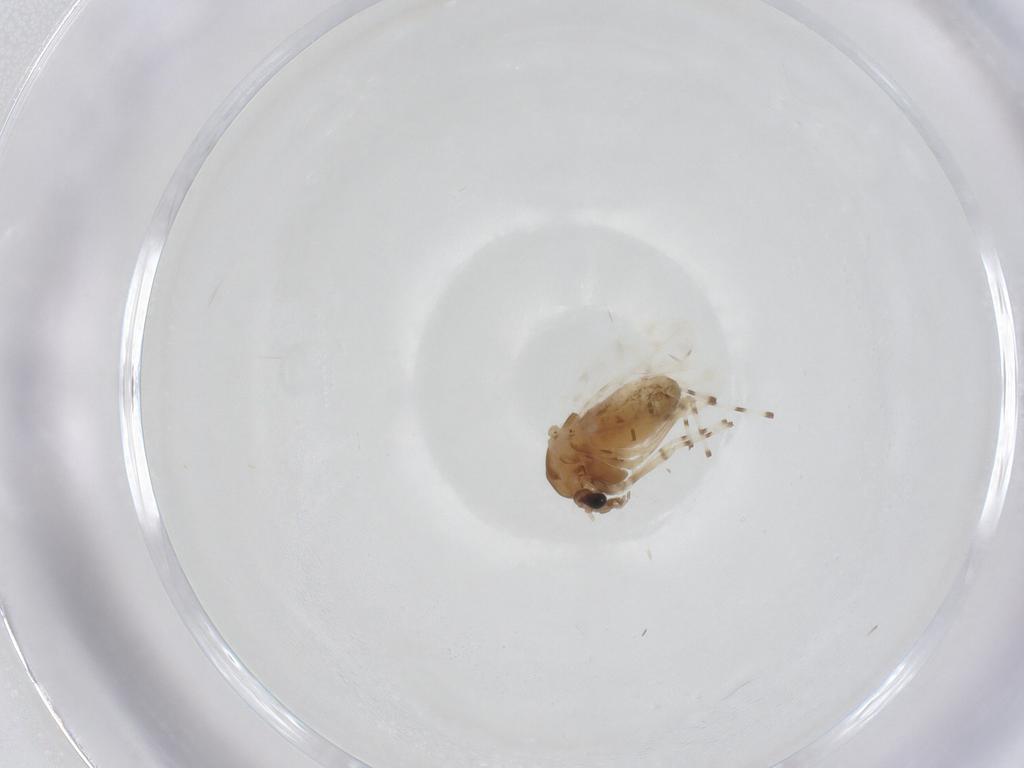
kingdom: Animalia
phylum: Arthropoda
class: Insecta
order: Diptera
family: Chironomidae
